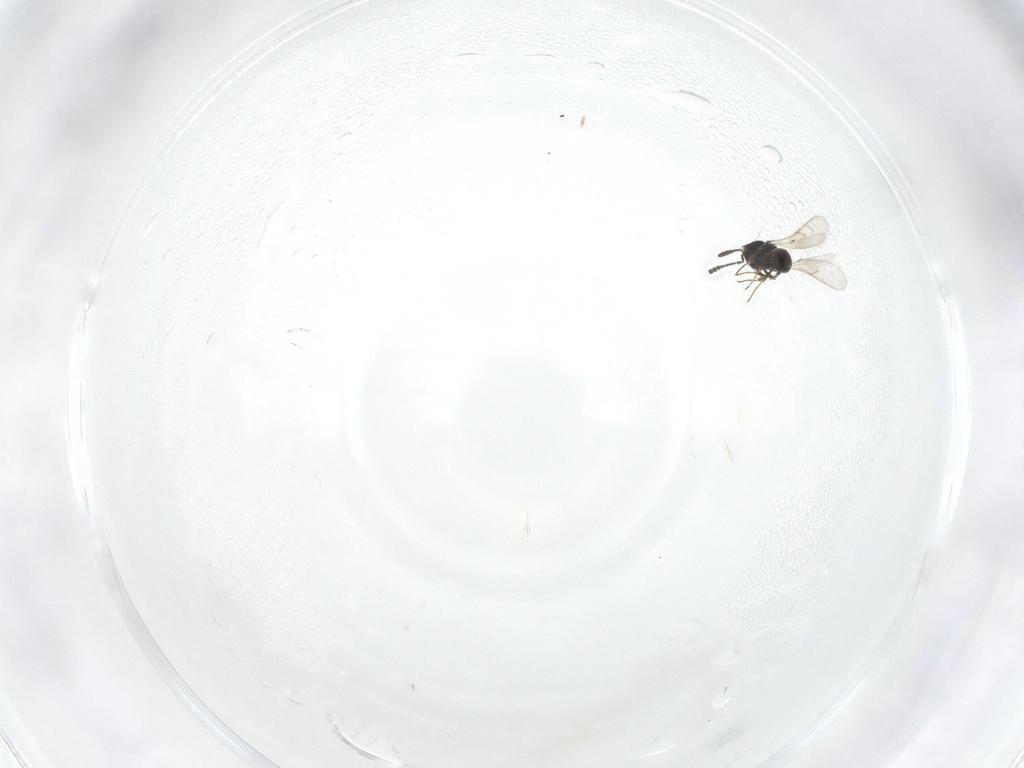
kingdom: Animalia
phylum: Arthropoda
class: Insecta
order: Hymenoptera
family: Scelionidae
